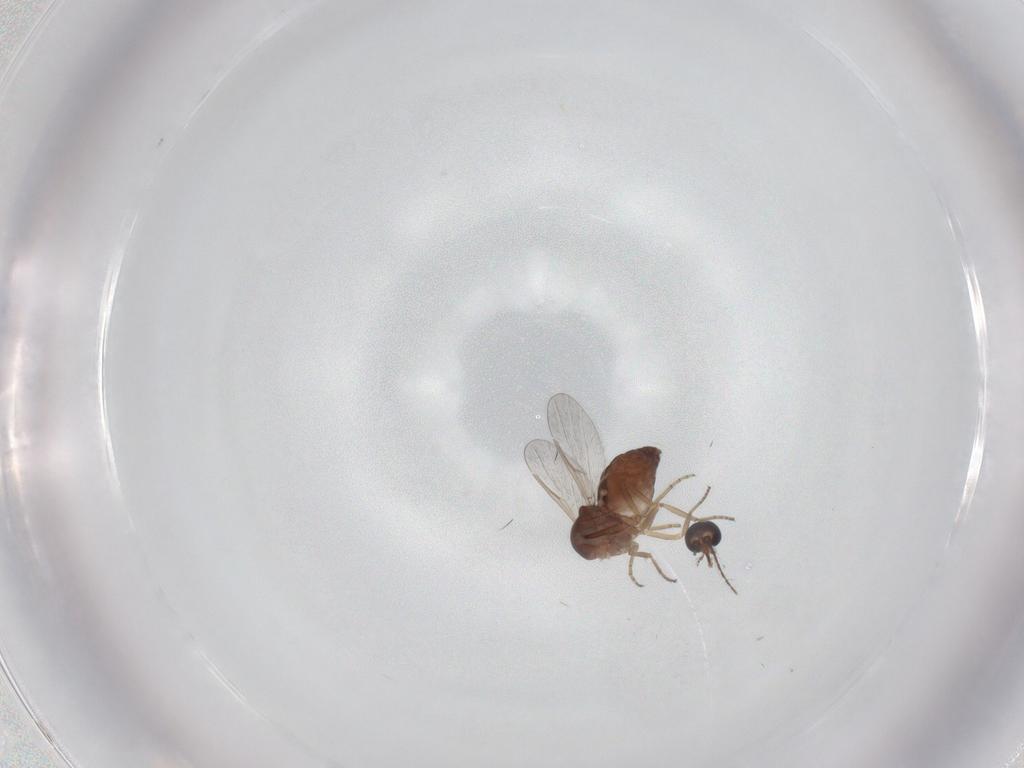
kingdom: Animalia
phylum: Arthropoda
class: Insecta
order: Diptera
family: Ceratopogonidae
